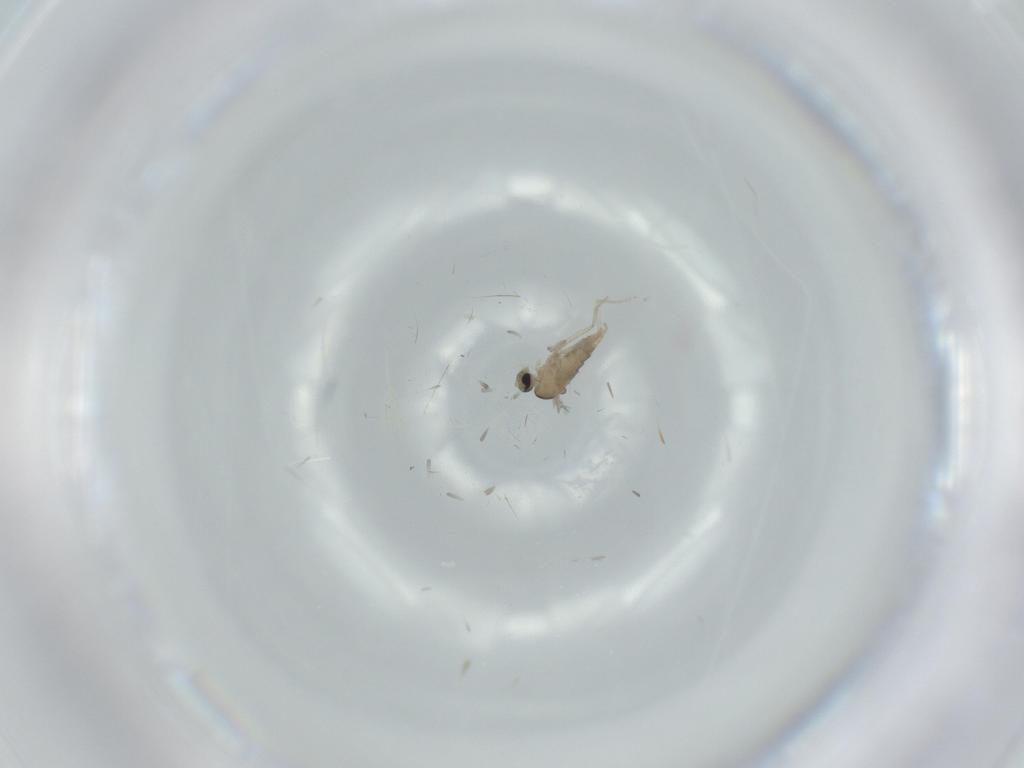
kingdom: Animalia
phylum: Arthropoda
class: Insecta
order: Diptera
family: Cecidomyiidae
